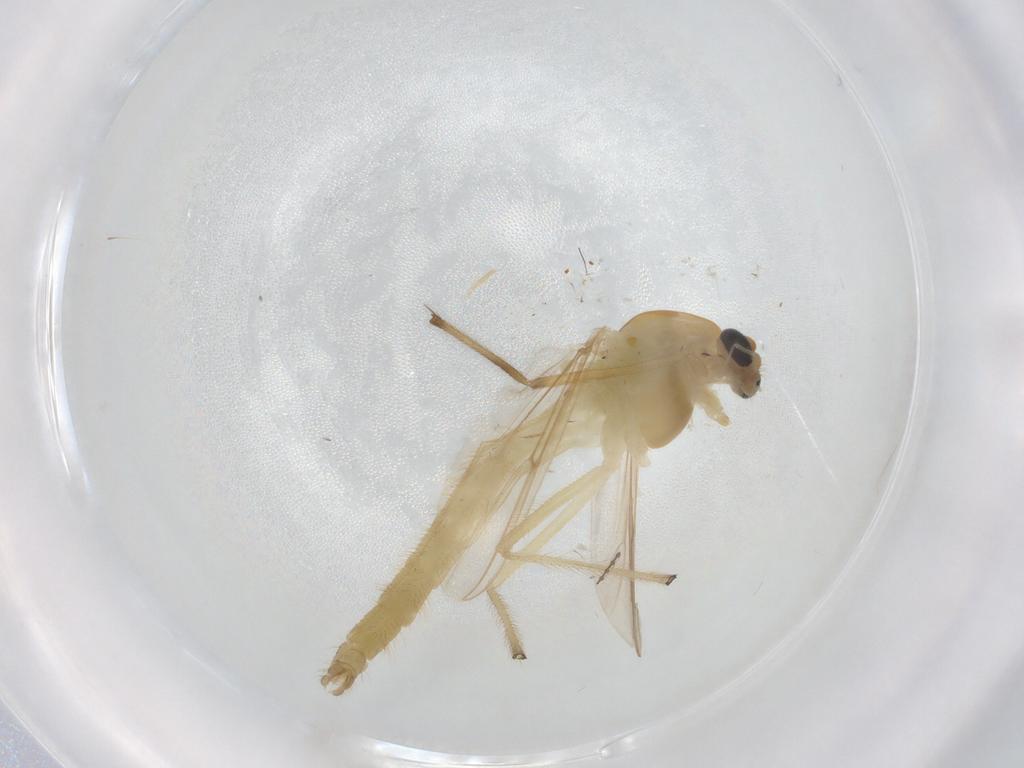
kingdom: Animalia
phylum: Arthropoda
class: Insecta
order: Diptera
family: Chironomidae
